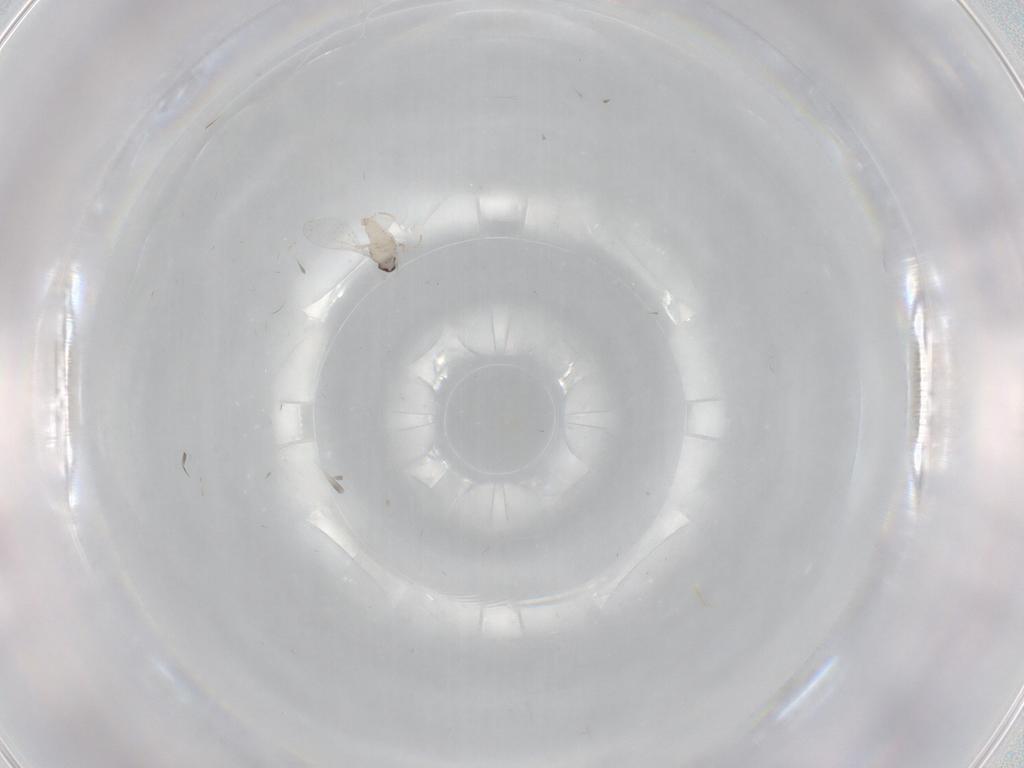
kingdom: Animalia
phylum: Arthropoda
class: Insecta
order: Diptera
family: Cecidomyiidae
